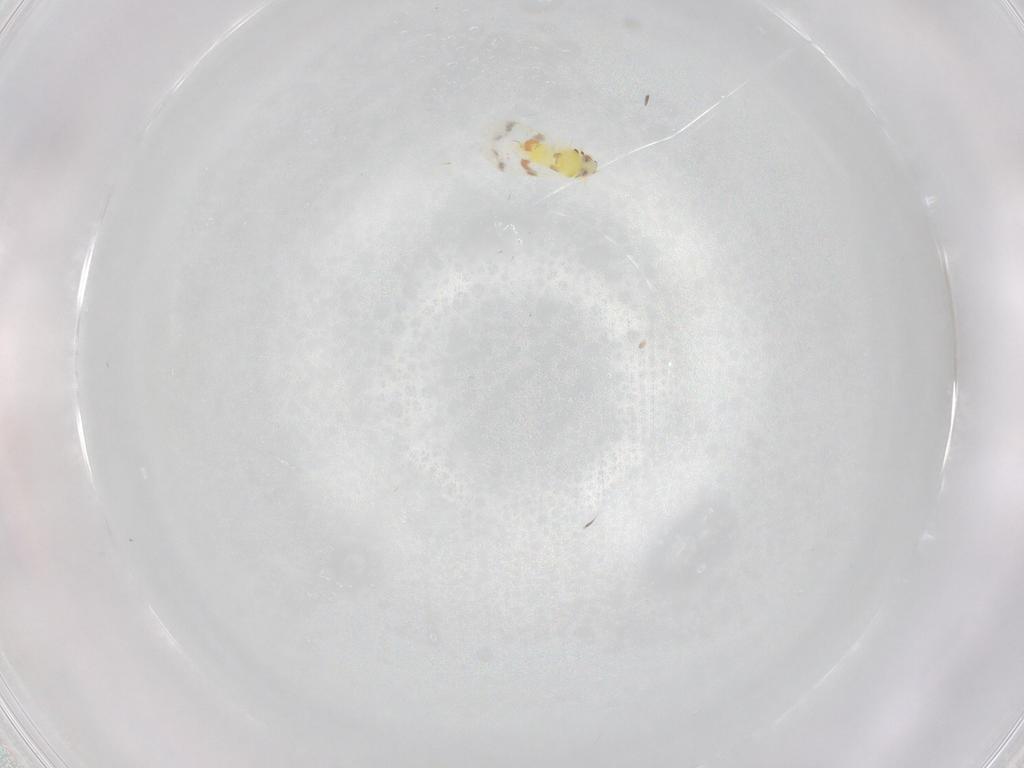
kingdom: Animalia
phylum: Arthropoda
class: Insecta
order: Hemiptera
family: Aleyrodidae
